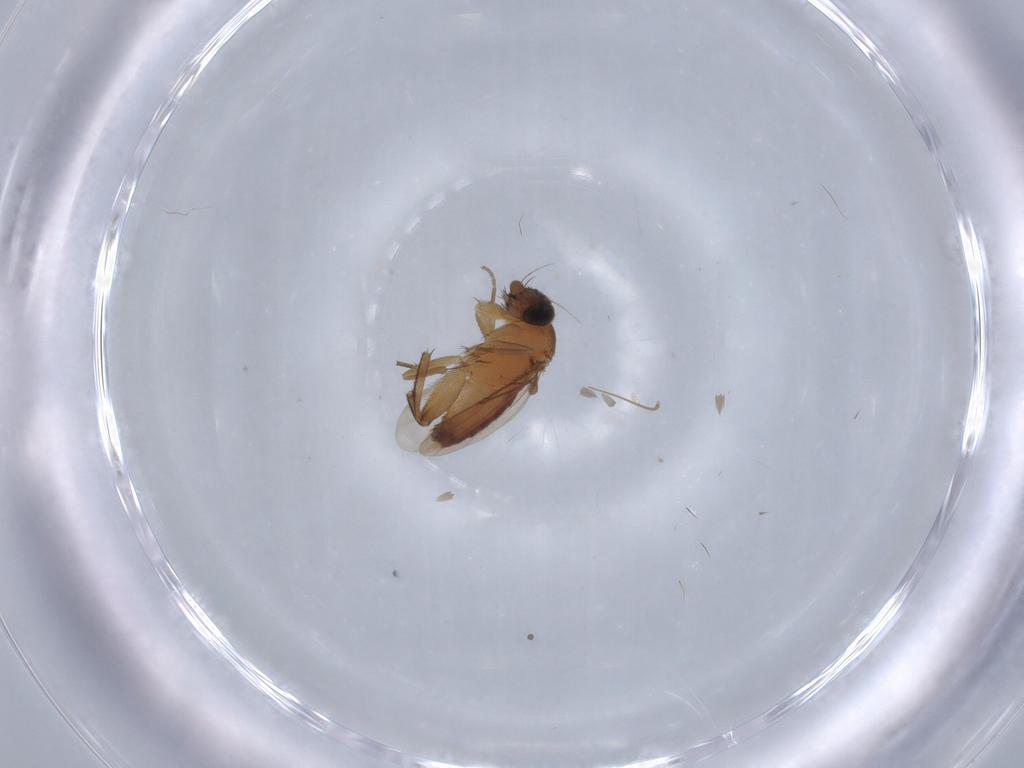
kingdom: Animalia
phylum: Arthropoda
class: Insecta
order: Diptera
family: Phoridae
